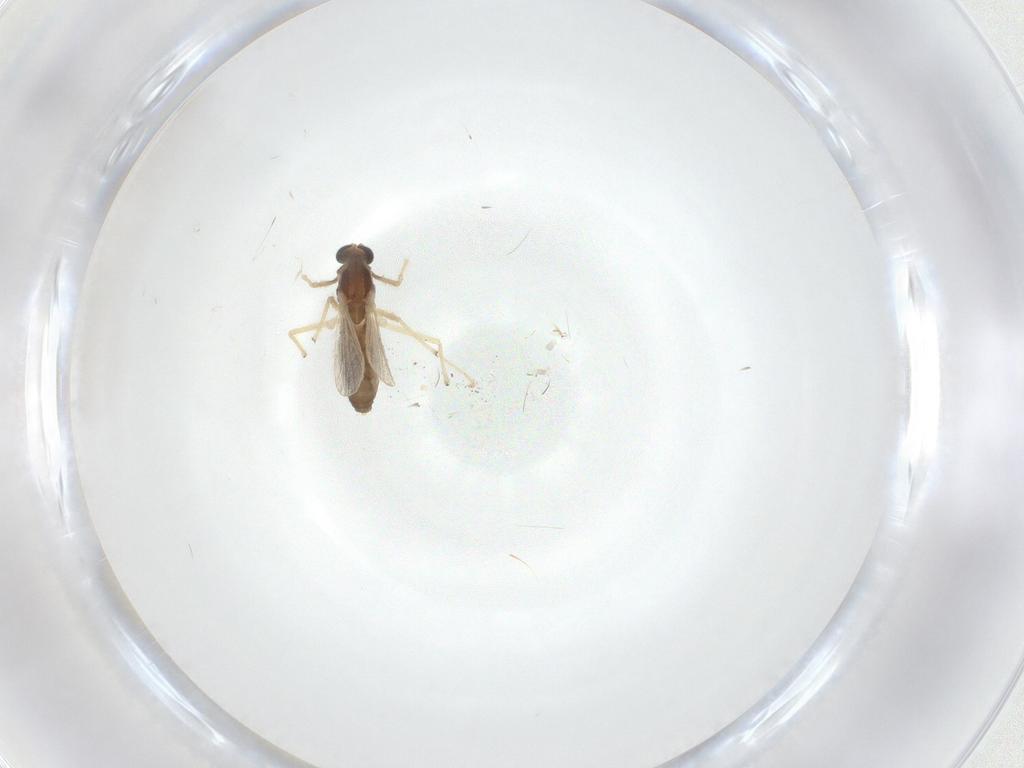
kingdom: Animalia
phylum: Arthropoda
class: Insecta
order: Diptera
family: Chironomidae
